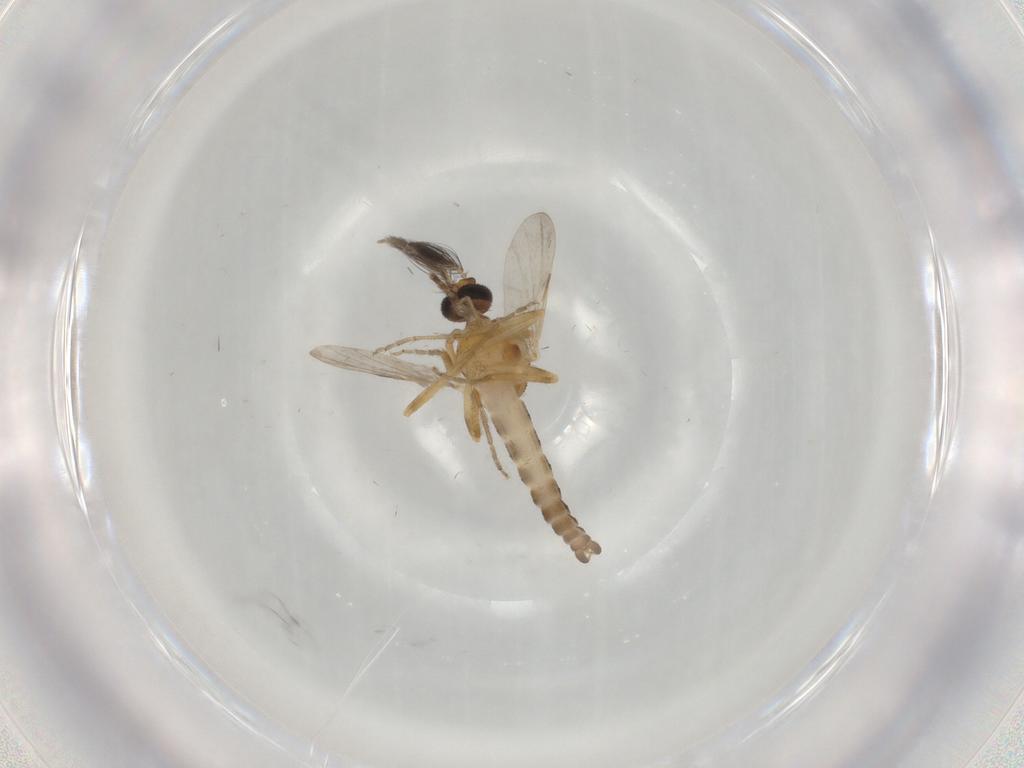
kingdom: Animalia
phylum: Arthropoda
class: Insecta
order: Diptera
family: Ceratopogonidae
